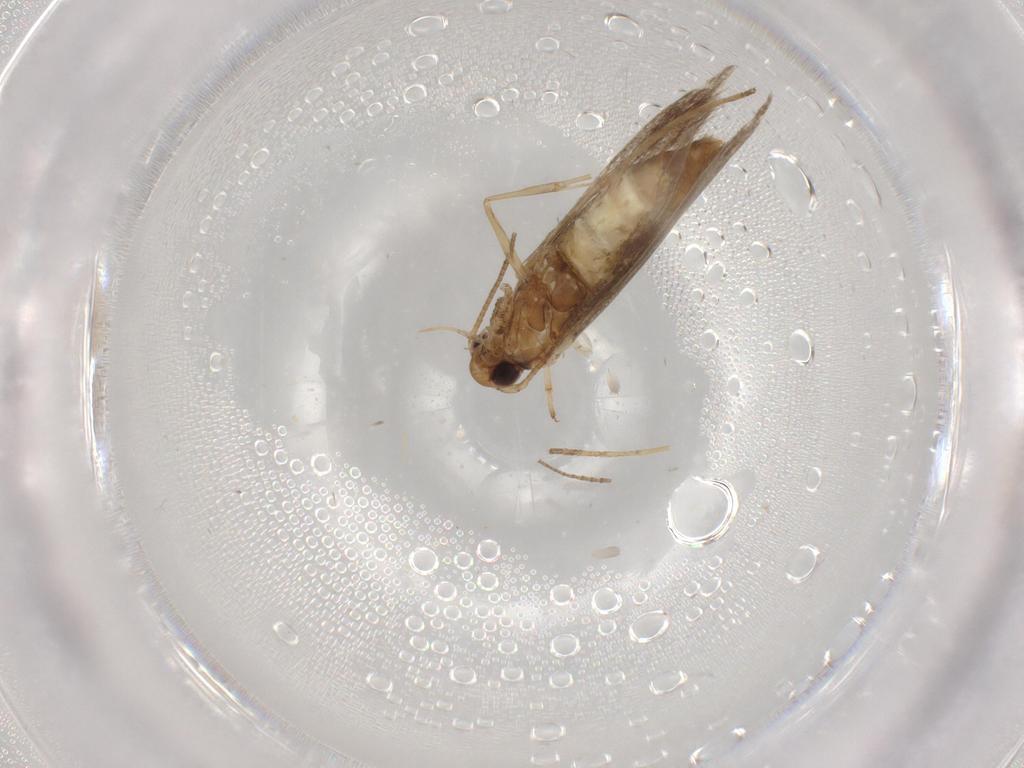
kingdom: Animalia
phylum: Arthropoda
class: Insecta
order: Lepidoptera
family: Gracillariidae
